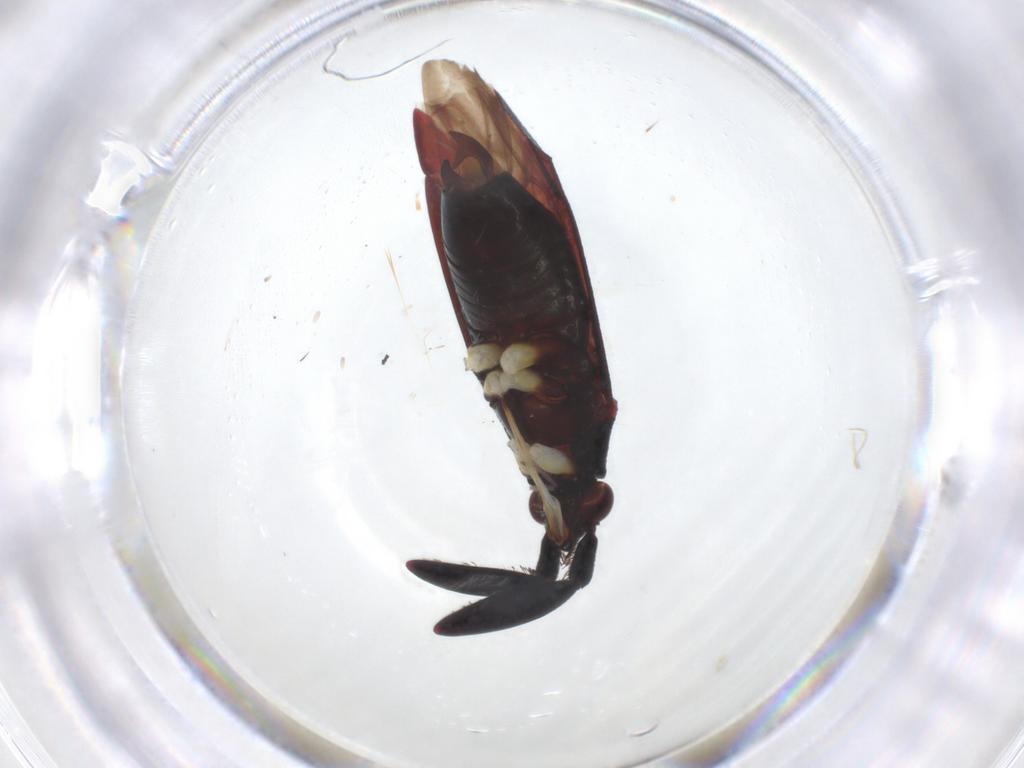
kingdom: Animalia
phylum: Arthropoda
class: Collembola
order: Entomobryomorpha
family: Entomobryidae
